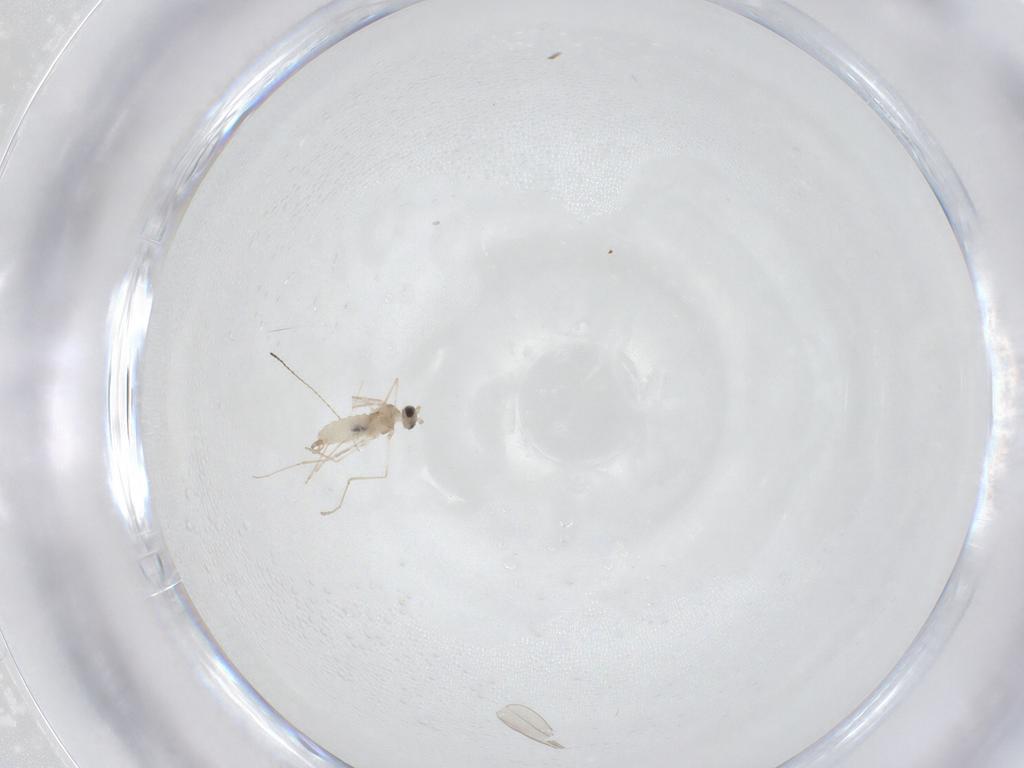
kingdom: Animalia
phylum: Arthropoda
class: Insecta
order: Diptera
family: Cecidomyiidae
